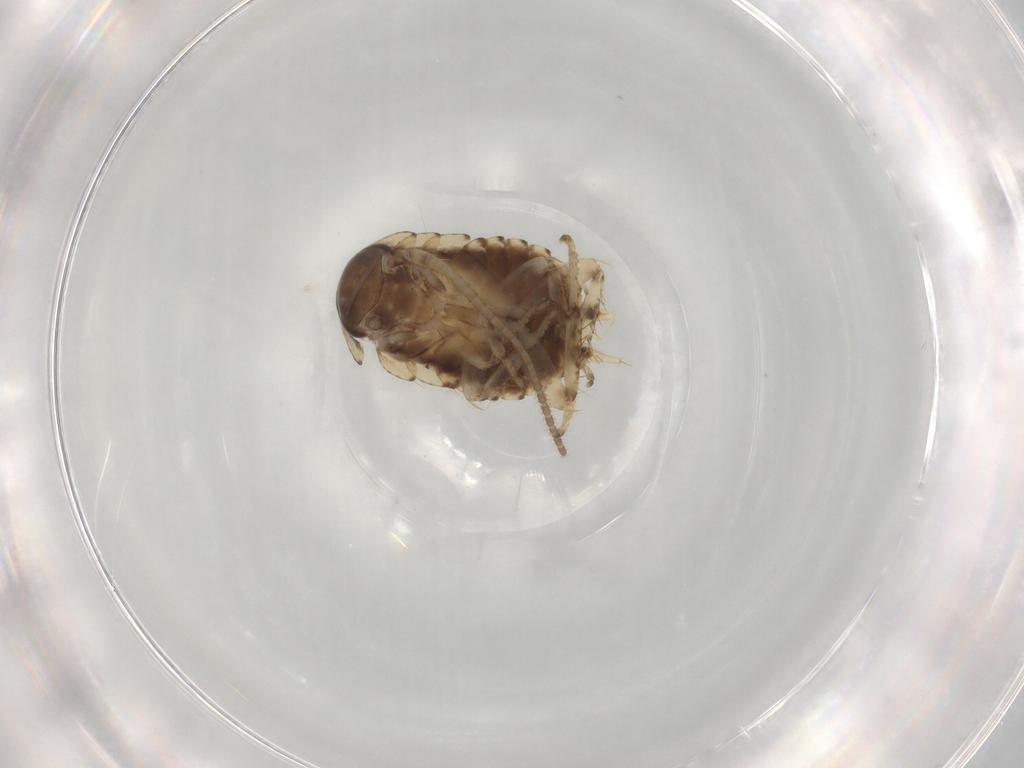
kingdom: Animalia
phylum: Arthropoda
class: Insecta
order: Blattodea
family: Blaberidae
